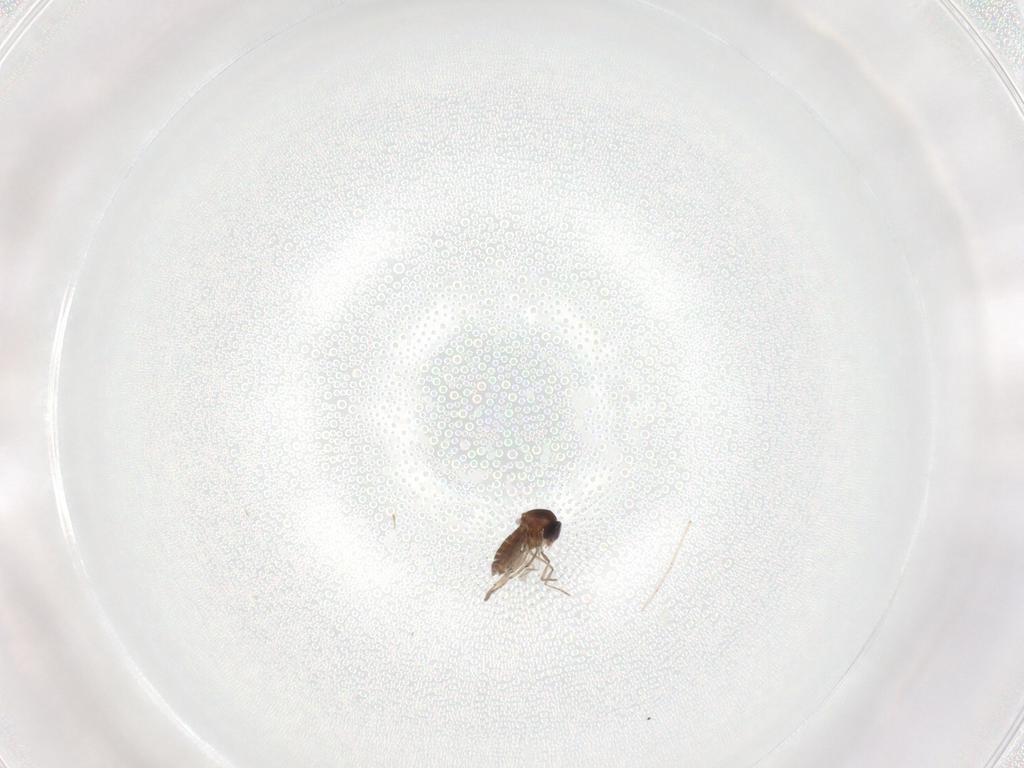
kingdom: Animalia
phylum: Arthropoda
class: Insecta
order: Diptera
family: Chironomidae
